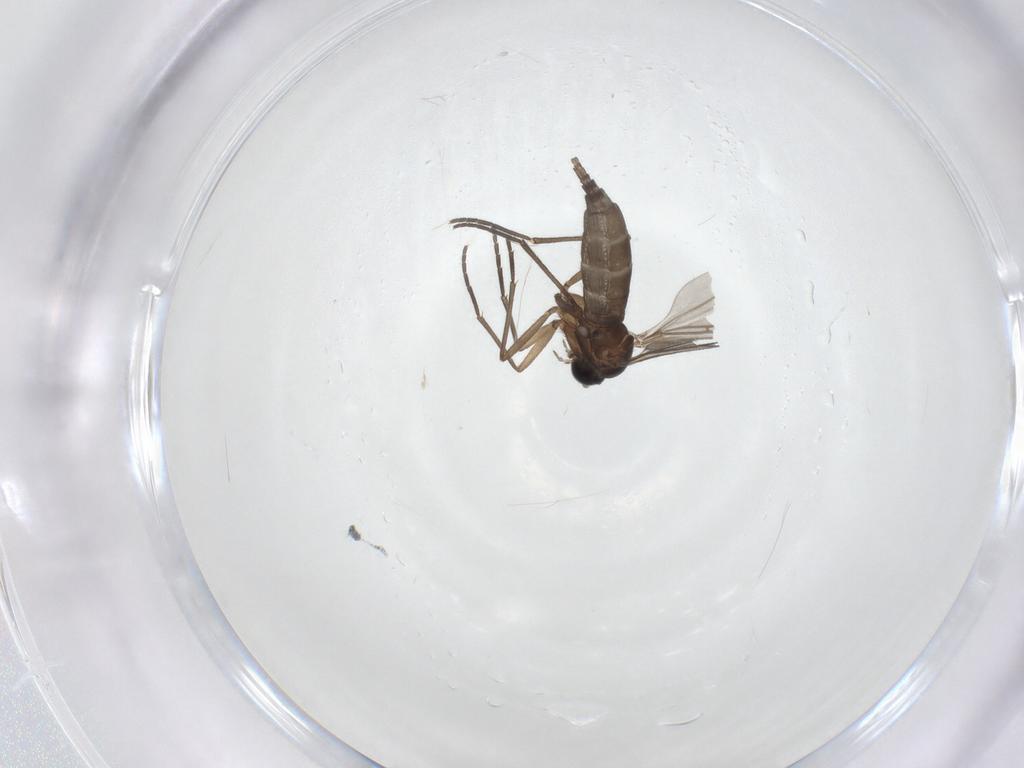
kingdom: Animalia
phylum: Arthropoda
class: Insecta
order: Diptera
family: Sciaridae
